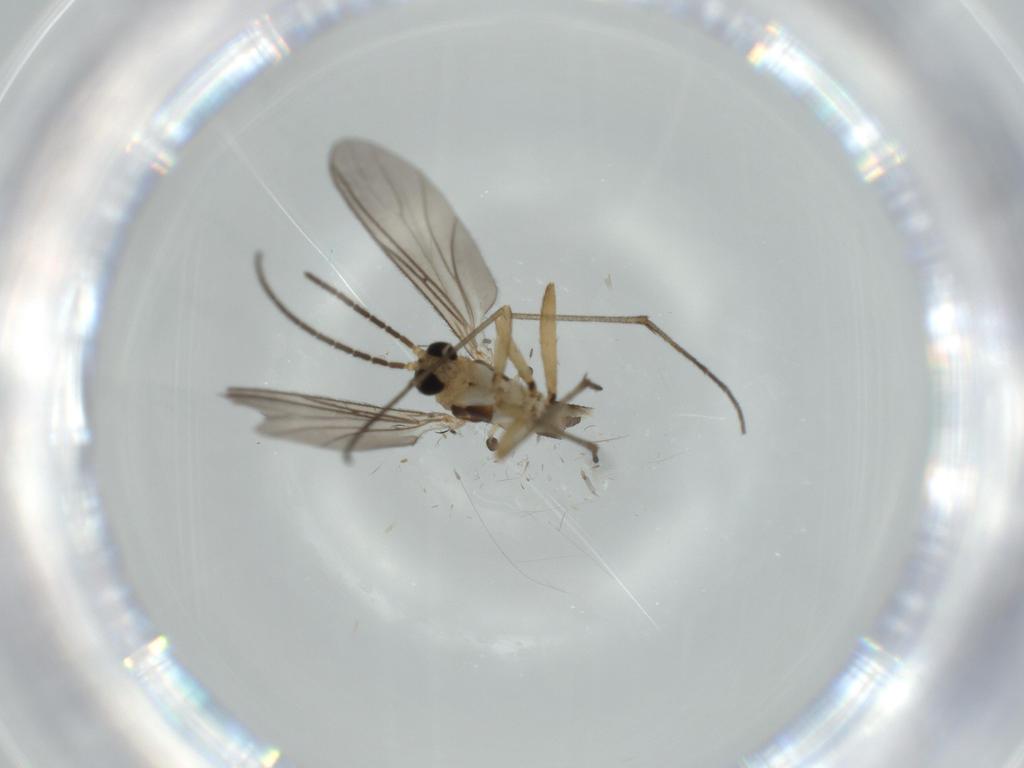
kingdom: Animalia
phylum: Arthropoda
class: Insecta
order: Diptera
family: Sciaridae
